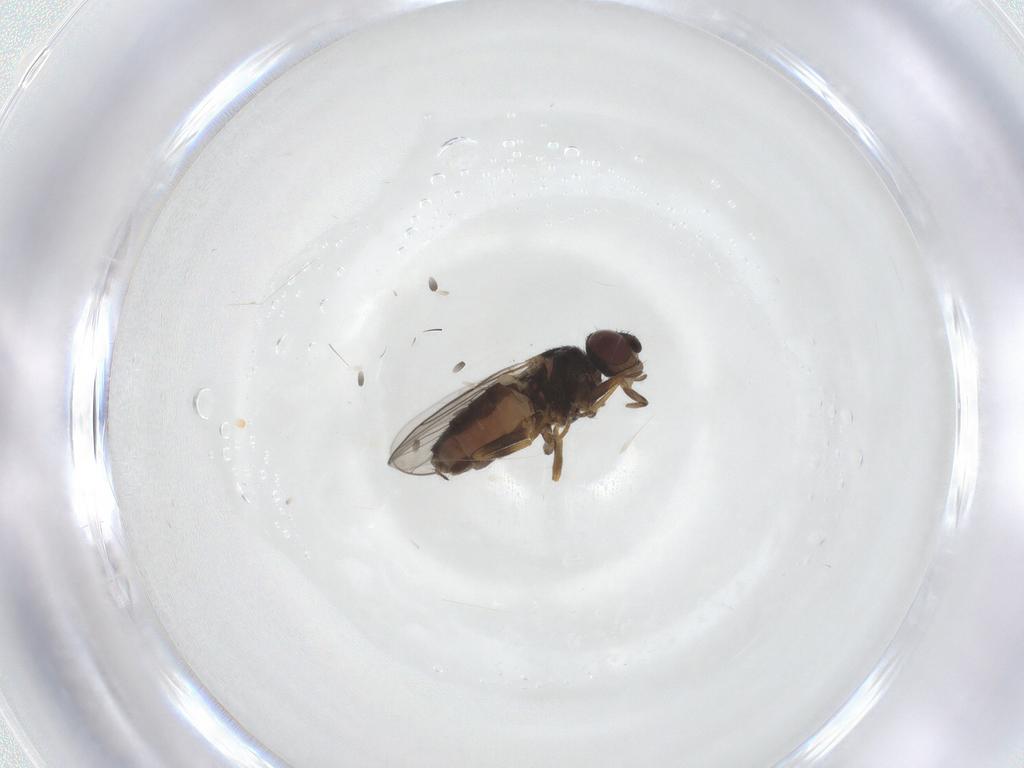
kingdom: Animalia
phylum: Arthropoda
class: Insecta
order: Diptera
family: Chloropidae
